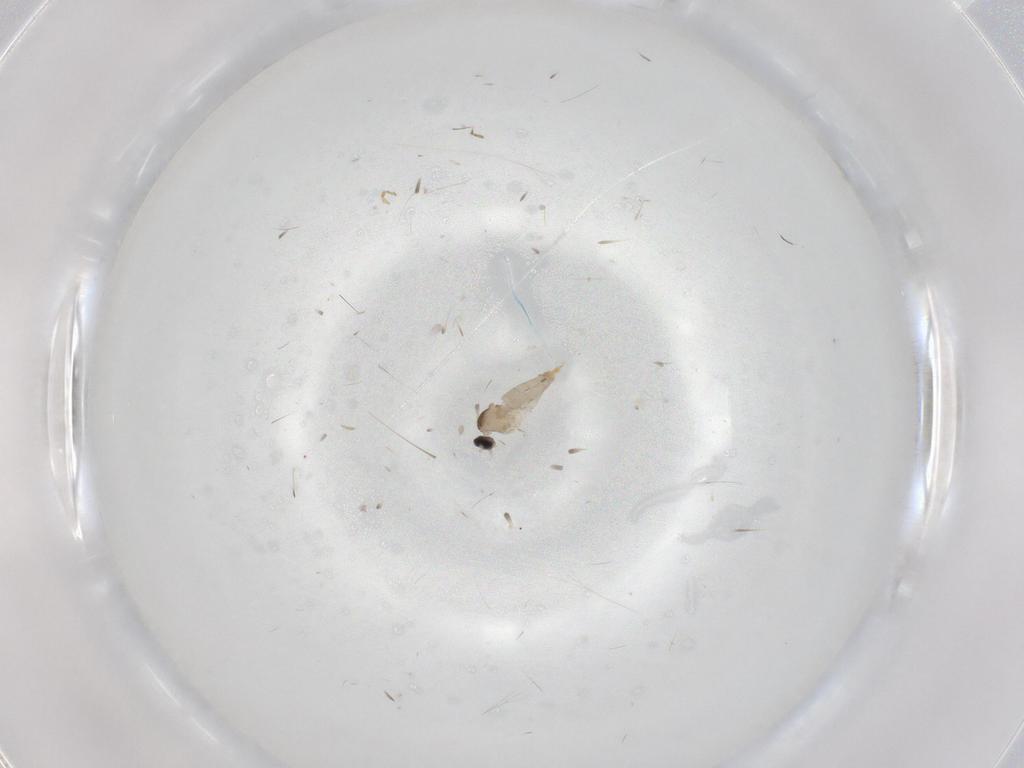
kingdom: Animalia
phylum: Arthropoda
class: Insecta
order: Diptera
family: Cecidomyiidae
